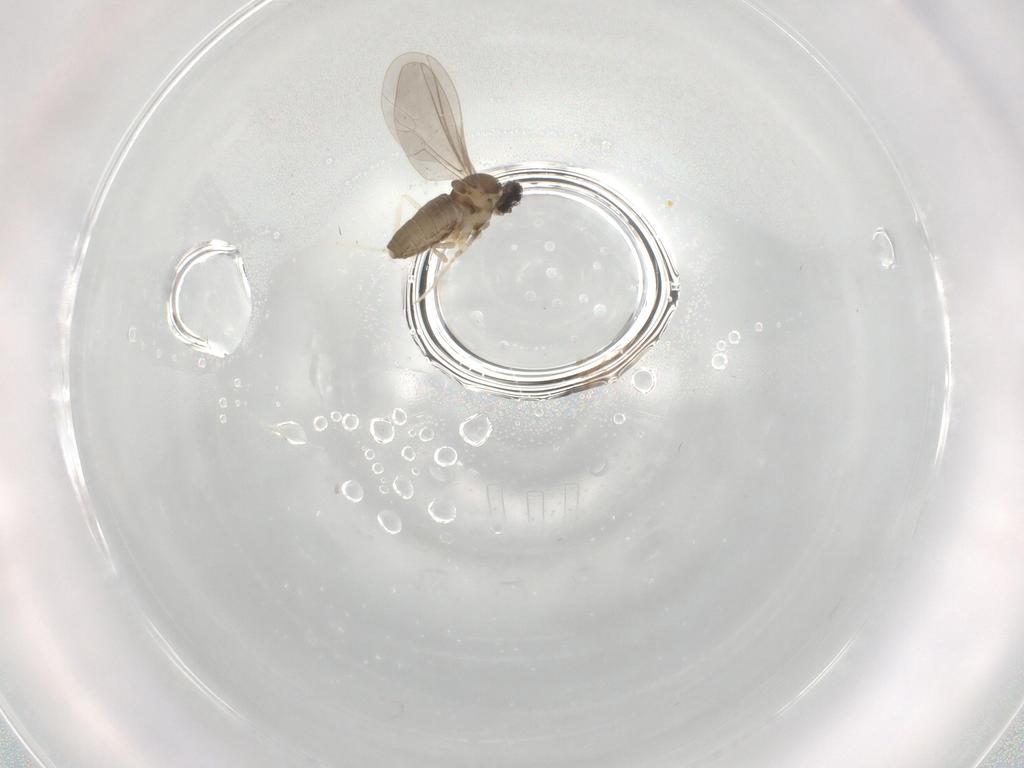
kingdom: Animalia
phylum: Arthropoda
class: Insecta
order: Diptera
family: Cecidomyiidae
